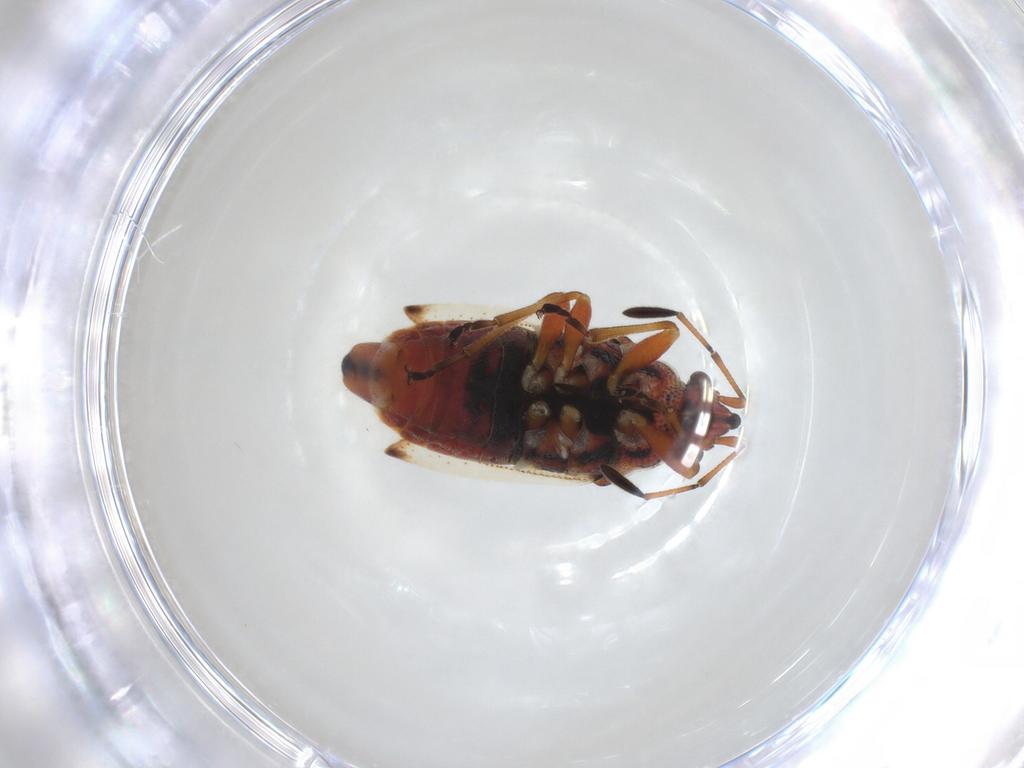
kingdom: Animalia
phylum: Arthropoda
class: Insecta
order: Hemiptera
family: Lygaeidae
